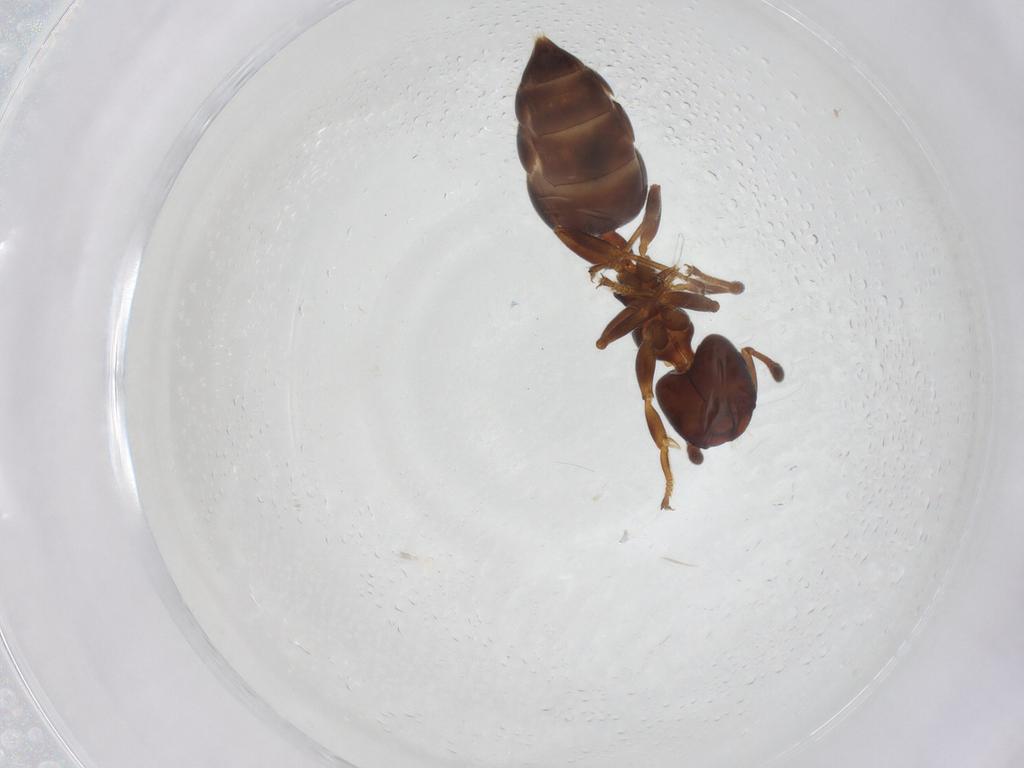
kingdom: Animalia
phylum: Arthropoda
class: Insecta
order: Hymenoptera
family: Formicidae
